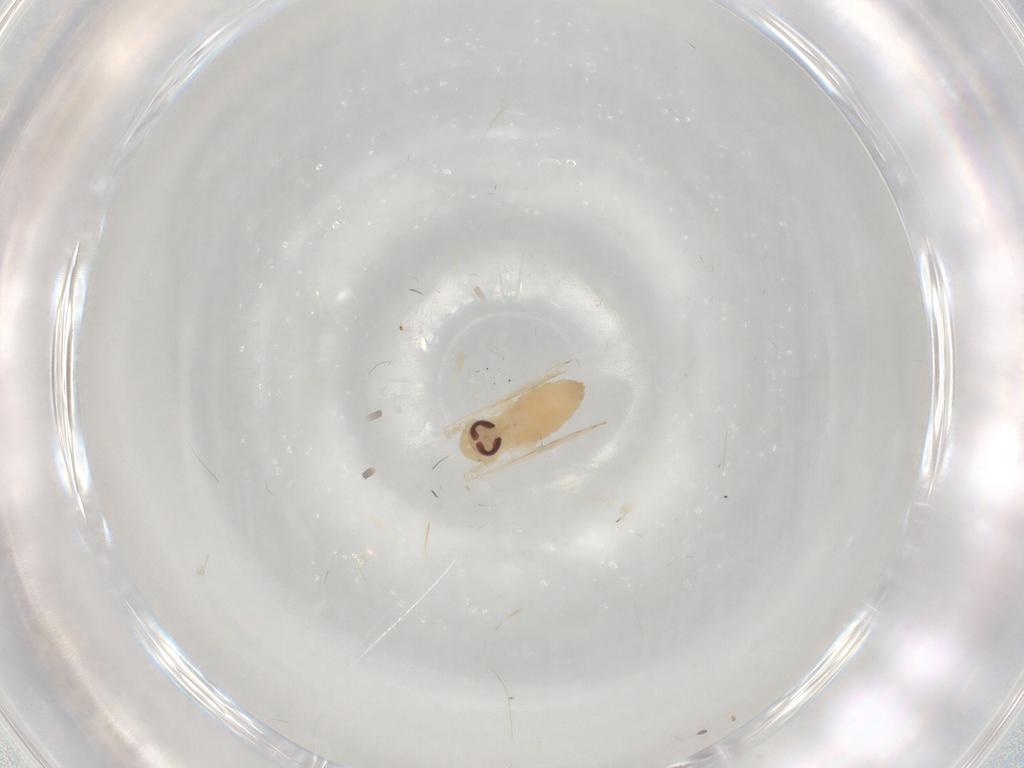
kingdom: Animalia
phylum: Arthropoda
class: Insecta
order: Diptera
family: Psychodidae
